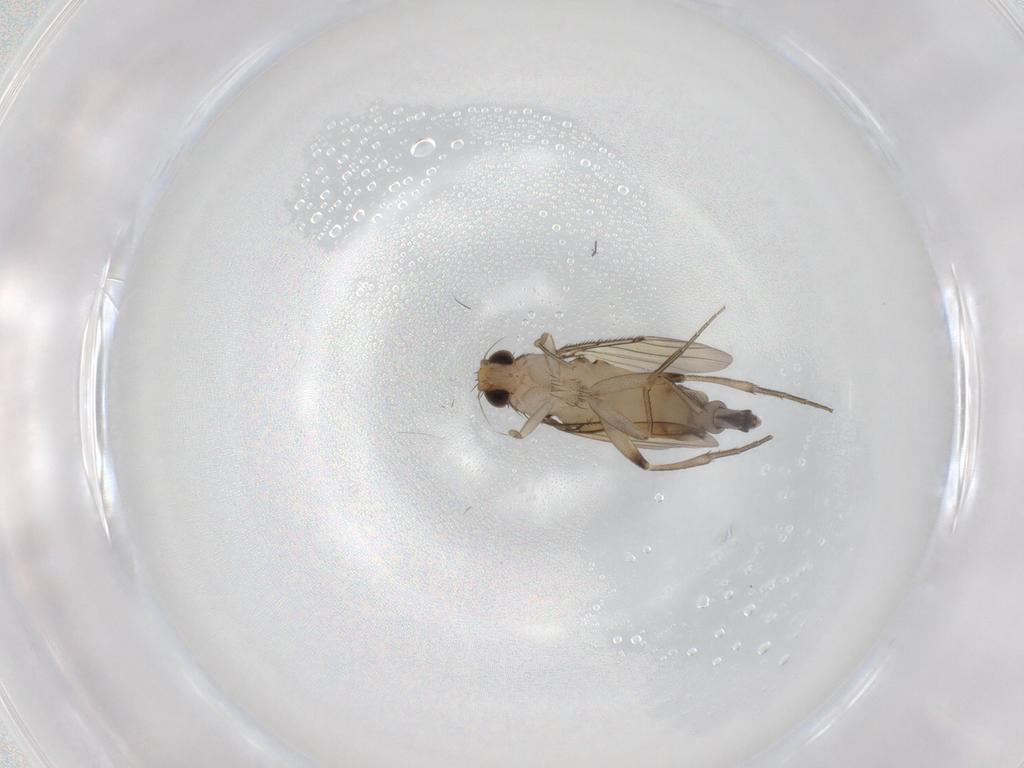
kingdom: Animalia
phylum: Arthropoda
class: Insecta
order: Diptera
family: Phoridae
